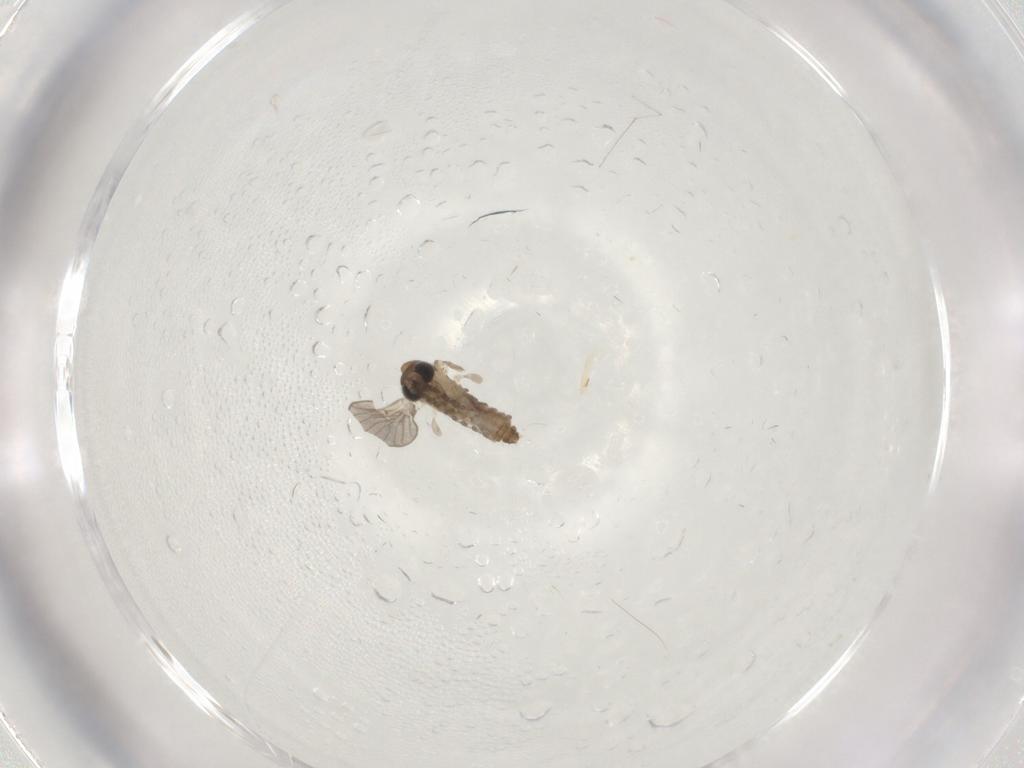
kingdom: Animalia
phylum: Arthropoda
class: Insecta
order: Diptera
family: Cecidomyiidae
